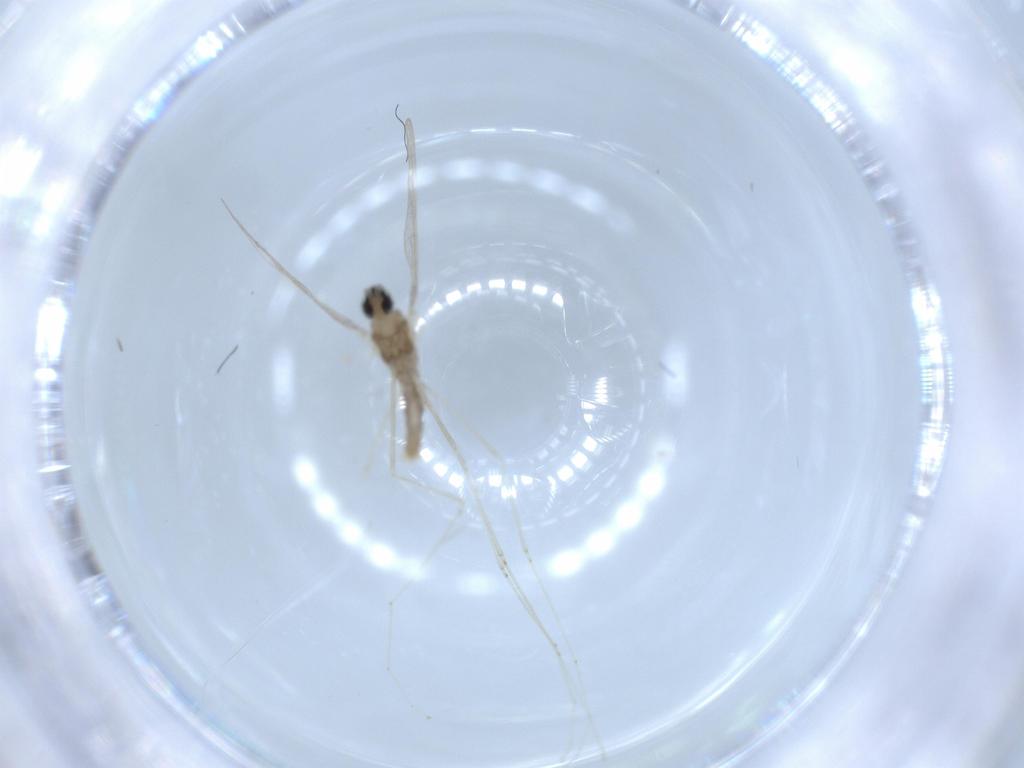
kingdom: Animalia
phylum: Arthropoda
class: Insecta
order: Diptera
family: Cecidomyiidae
